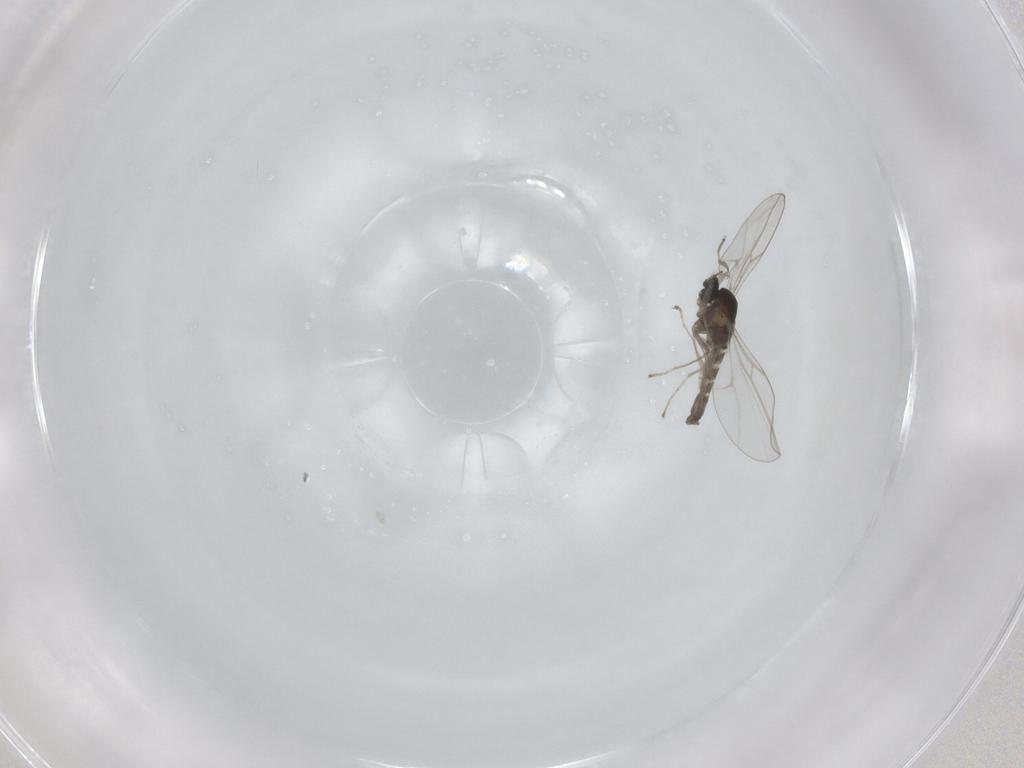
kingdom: Animalia
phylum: Arthropoda
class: Insecta
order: Diptera
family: Cecidomyiidae
